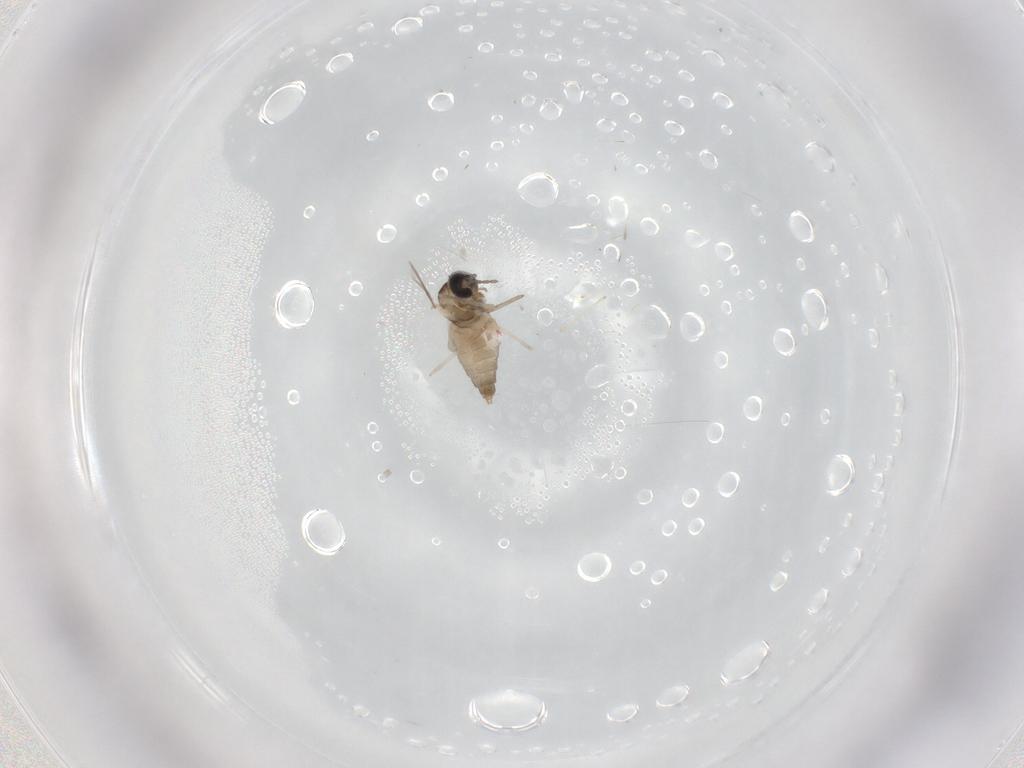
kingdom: Animalia
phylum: Arthropoda
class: Insecta
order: Diptera
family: Cecidomyiidae
